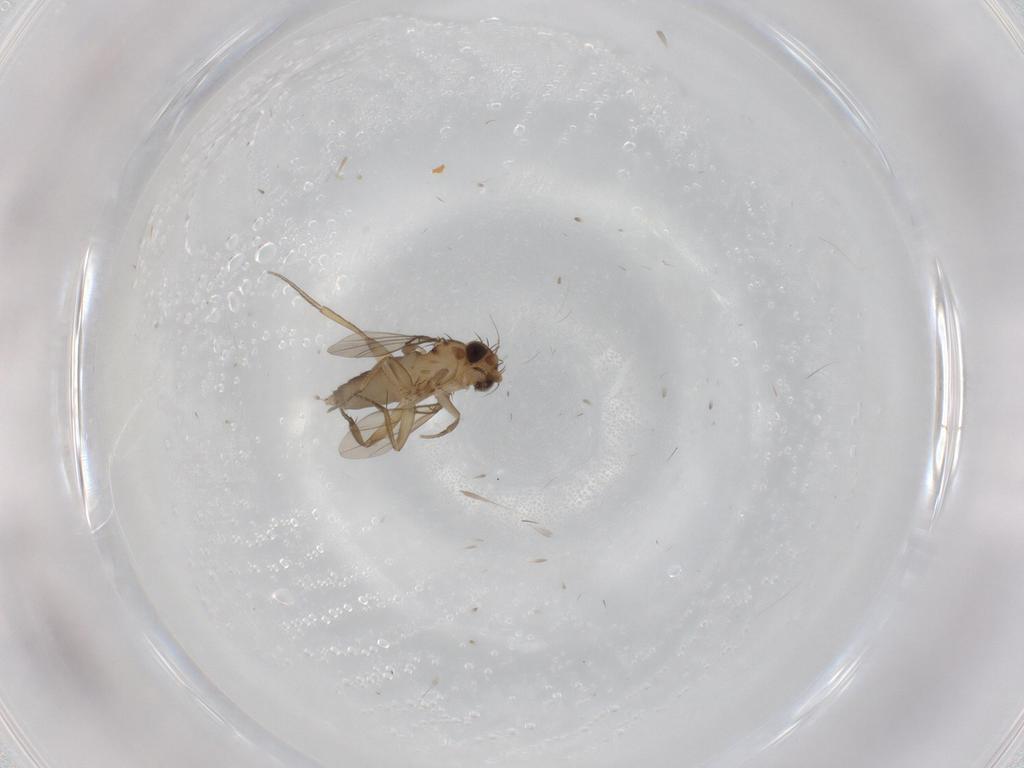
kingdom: Animalia
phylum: Arthropoda
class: Insecta
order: Diptera
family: Phoridae
